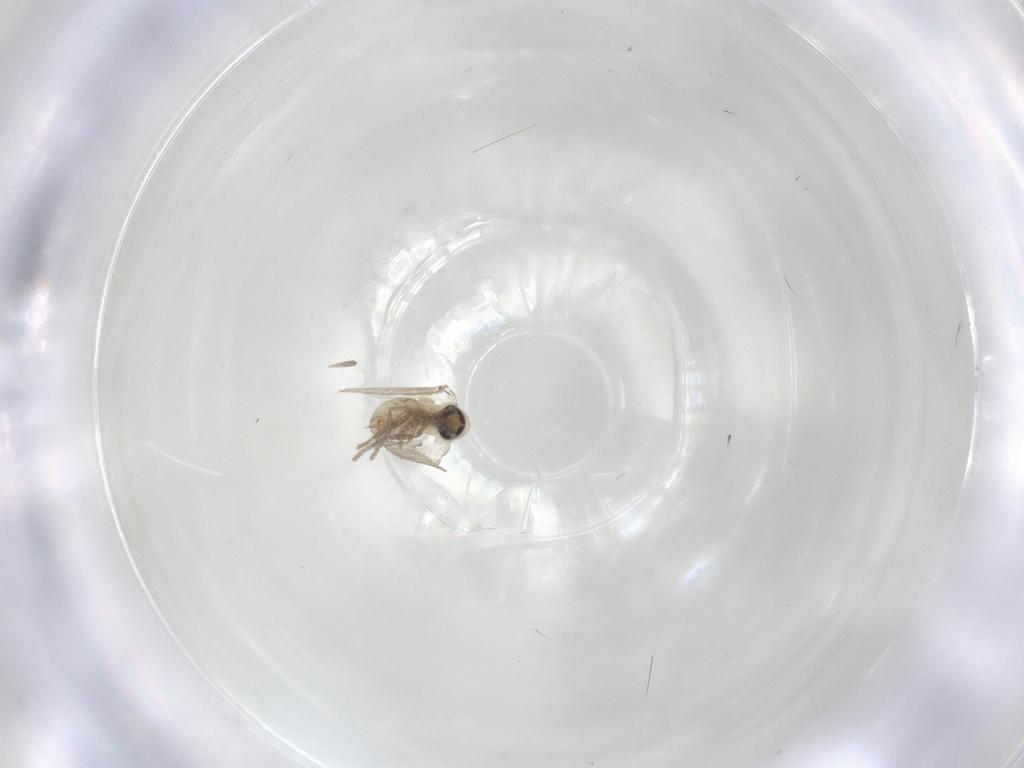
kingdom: Animalia
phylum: Arthropoda
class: Insecta
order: Diptera
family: Psychodidae
